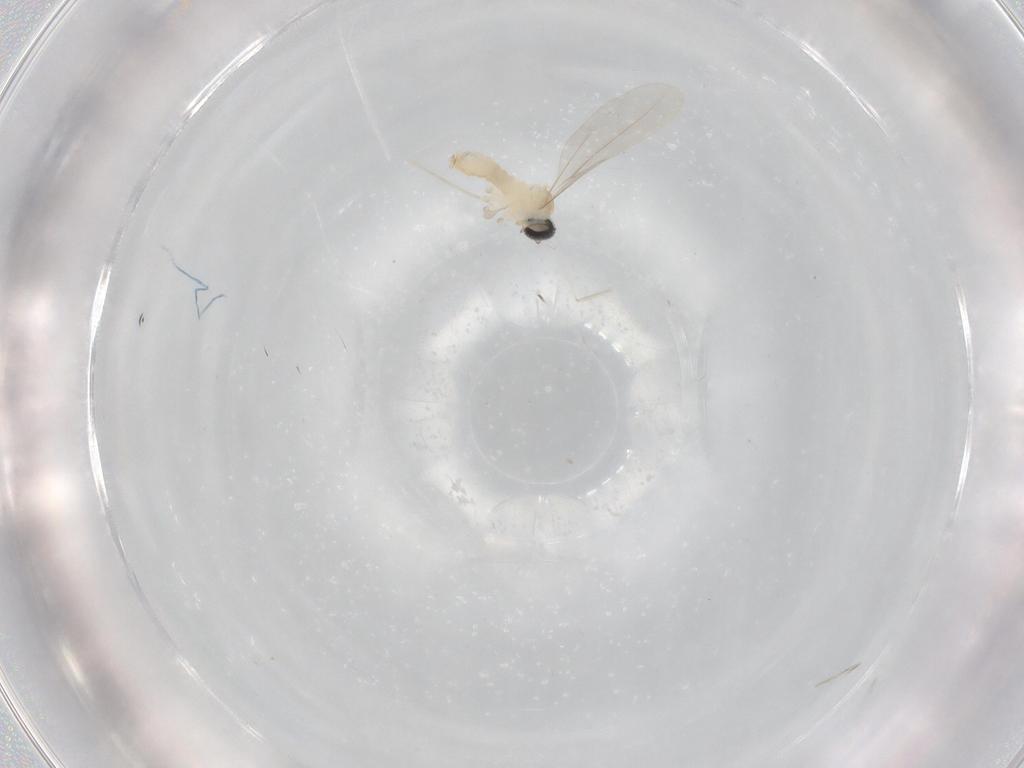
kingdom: Animalia
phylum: Arthropoda
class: Insecta
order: Diptera
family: Cecidomyiidae
